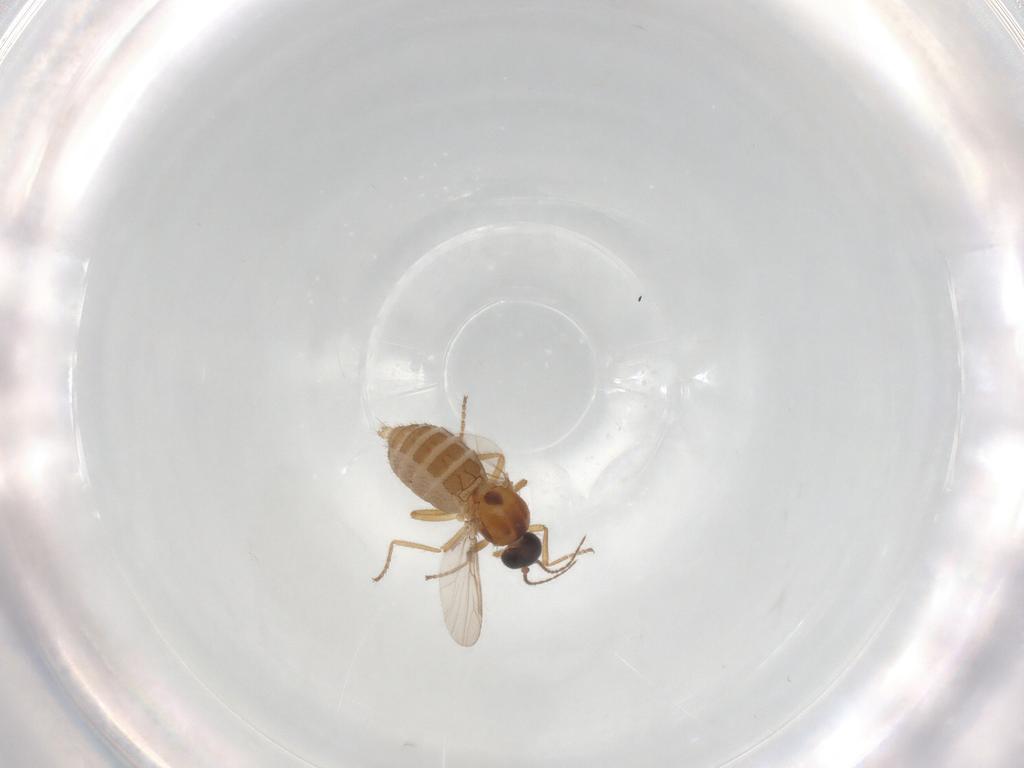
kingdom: Animalia
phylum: Arthropoda
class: Insecta
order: Diptera
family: Ceratopogonidae
